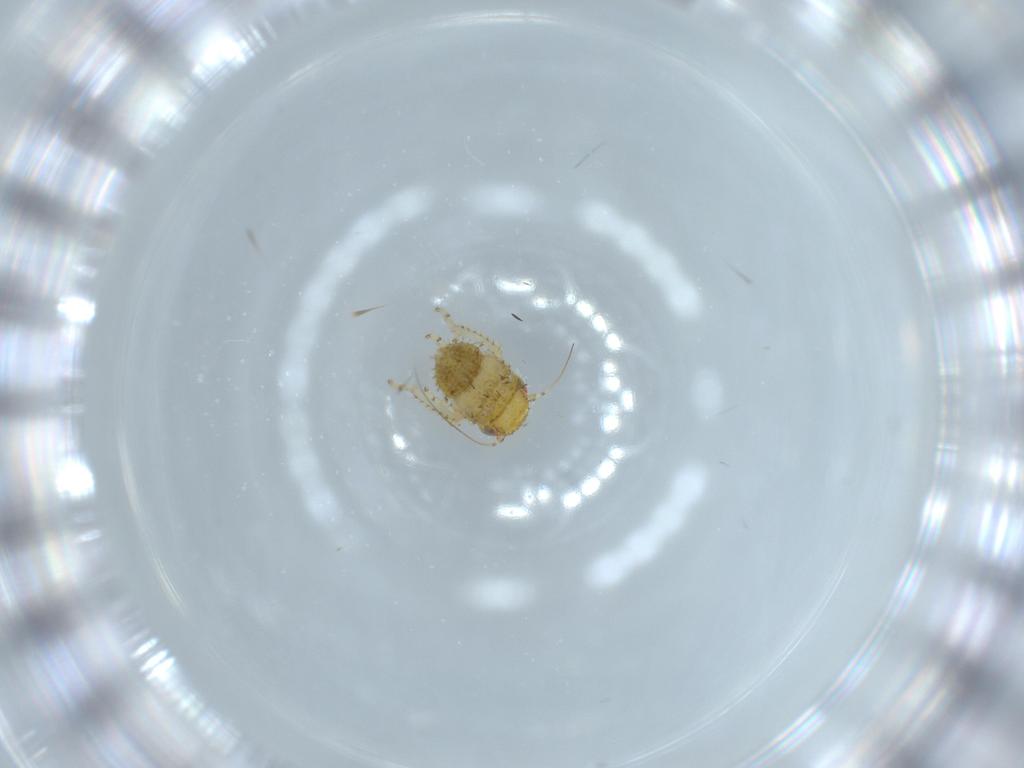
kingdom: Animalia
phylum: Arthropoda
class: Insecta
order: Hemiptera
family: Cicadellidae
